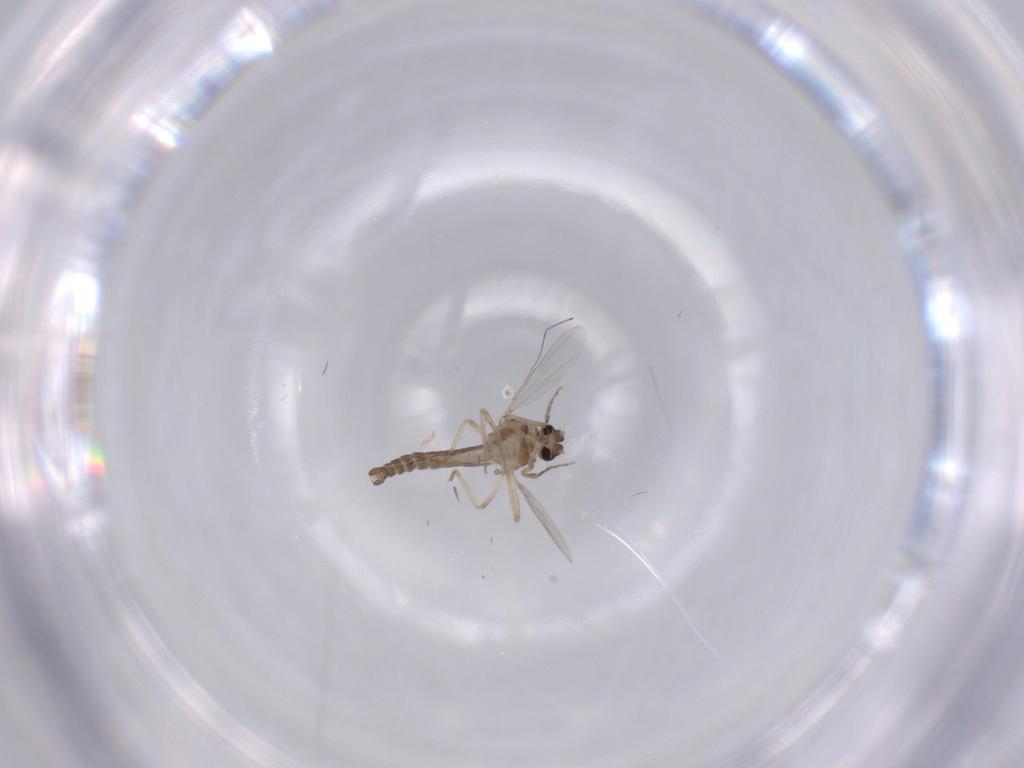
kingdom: Animalia
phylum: Arthropoda
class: Insecta
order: Diptera
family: Ceratopogonidae
